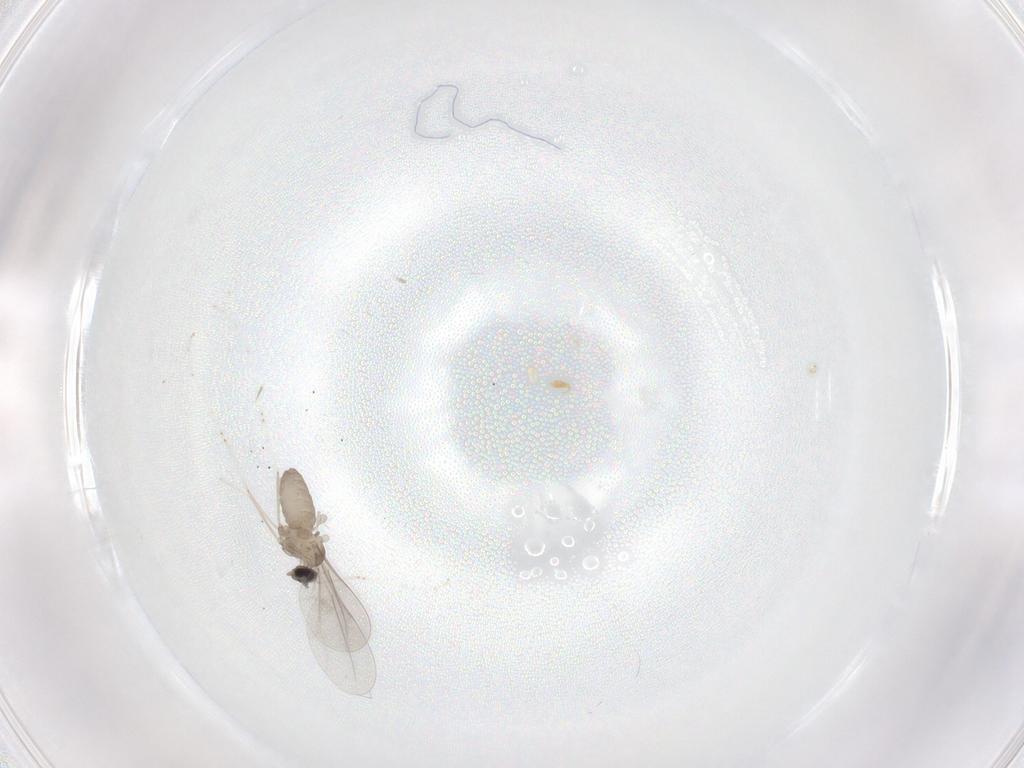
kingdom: Animalia
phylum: Arthropoda
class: Insecta
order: Diptera
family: Cecidomyiidae
